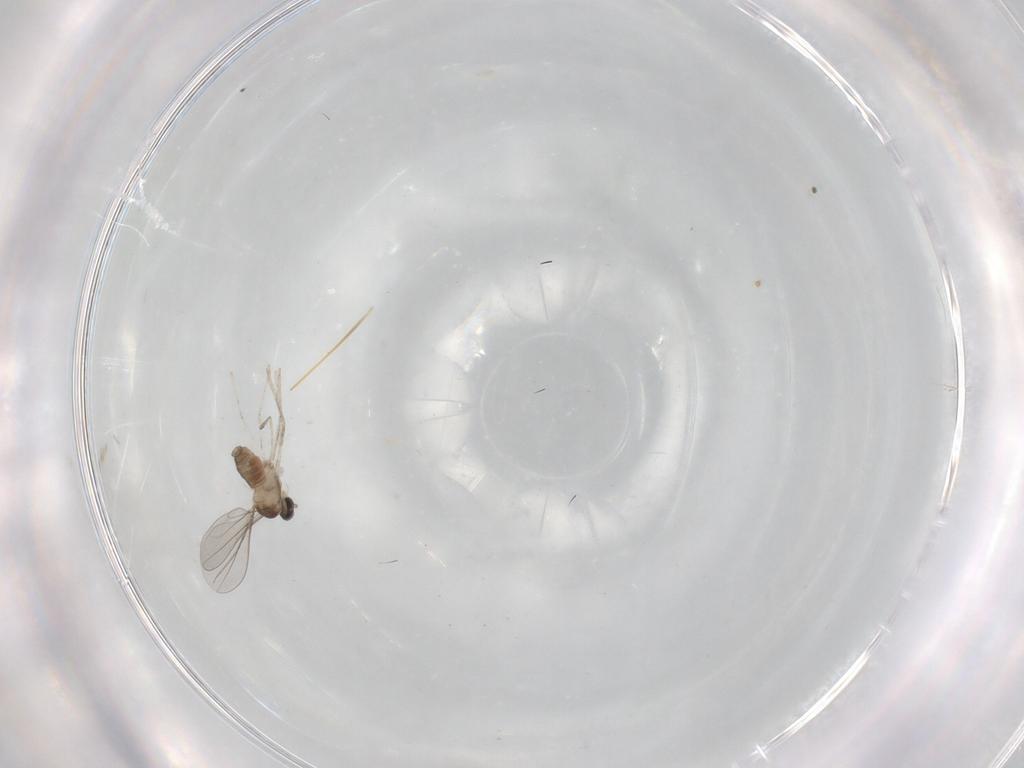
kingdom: Animalia
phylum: Arthropoda
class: Insecta
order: Diptera
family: Cecidomyiidae
